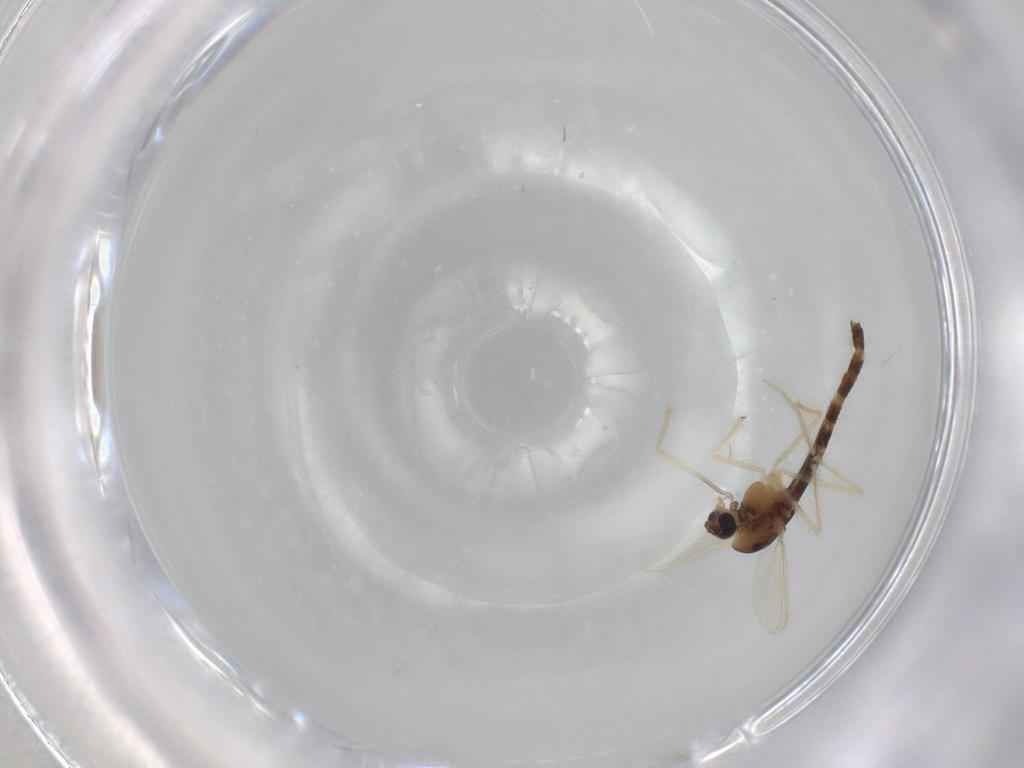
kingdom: Animalia
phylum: Arthropoda
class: Insecta
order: Diptera
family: Chironomidae
